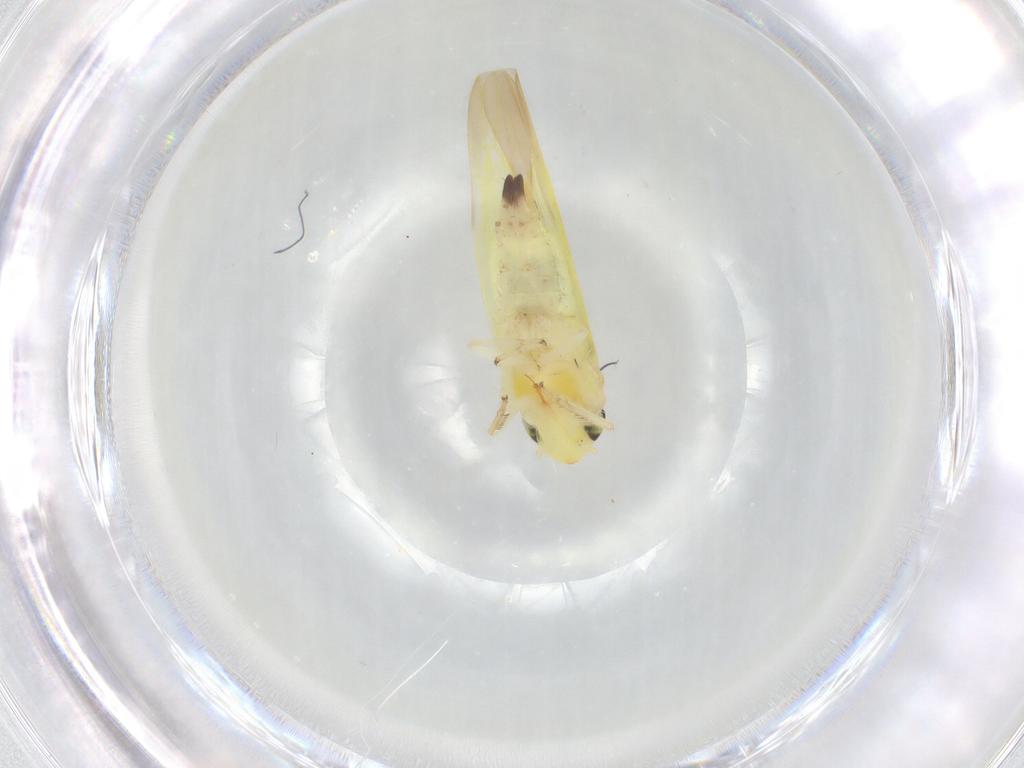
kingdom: Animalia
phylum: Arthropoda
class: Insecta
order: Hemiptera
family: Cicadellidae
